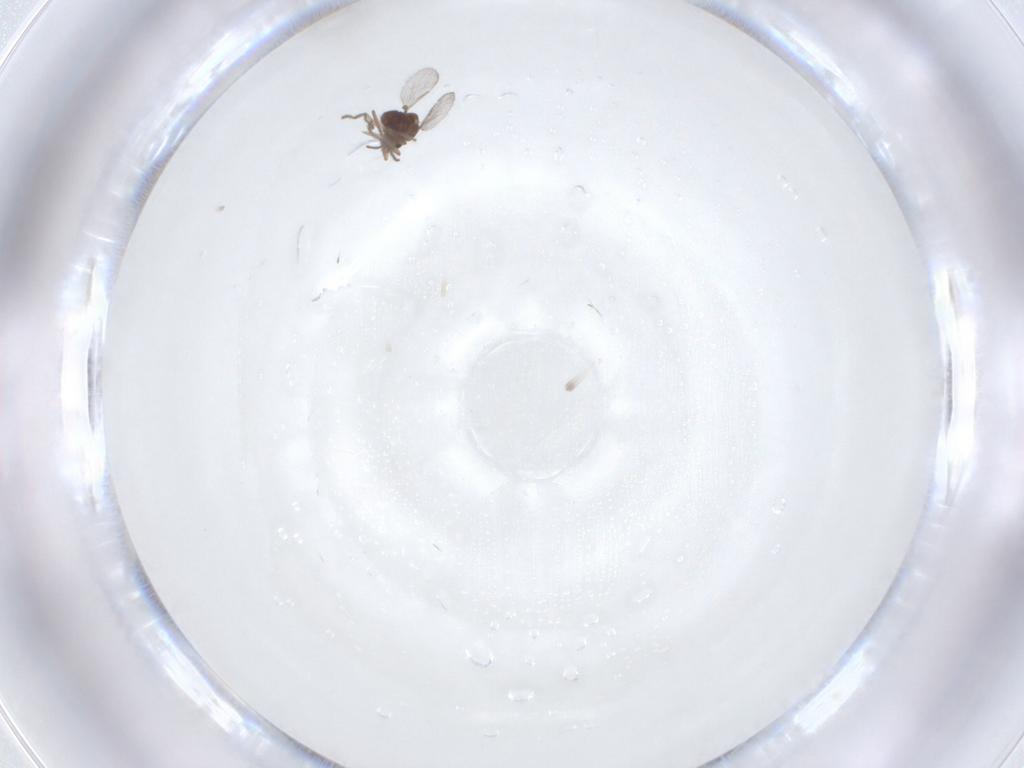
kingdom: Animalia
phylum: Arthropoda
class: Insecta
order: Diptera
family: Ceratopogonidae
